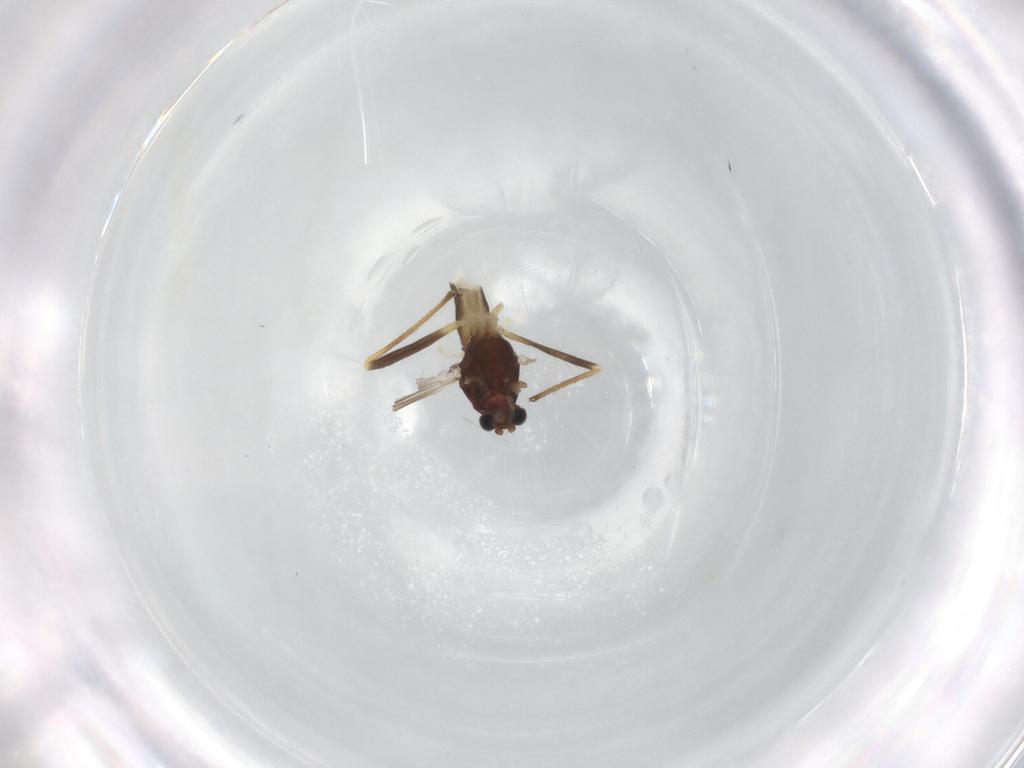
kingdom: Animalia
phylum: Arthropoda
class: Insecta
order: Diptera
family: Chironomidae
